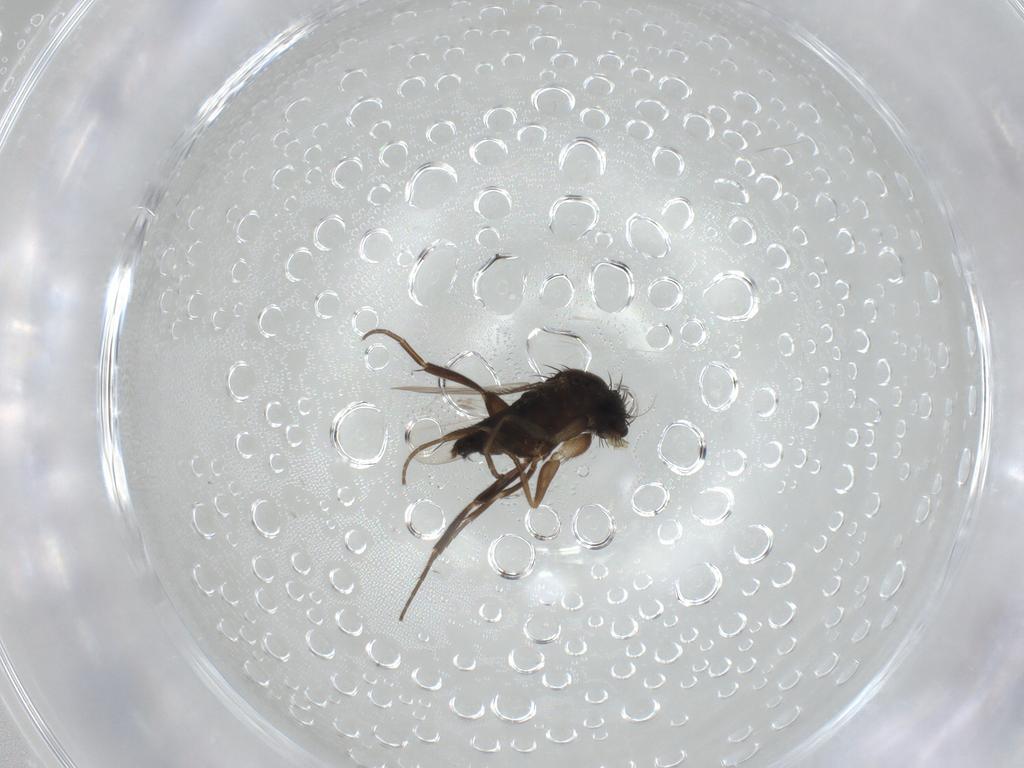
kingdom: Animalia
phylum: Arthropoda
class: Insecta
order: Diptera
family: Phoridae
